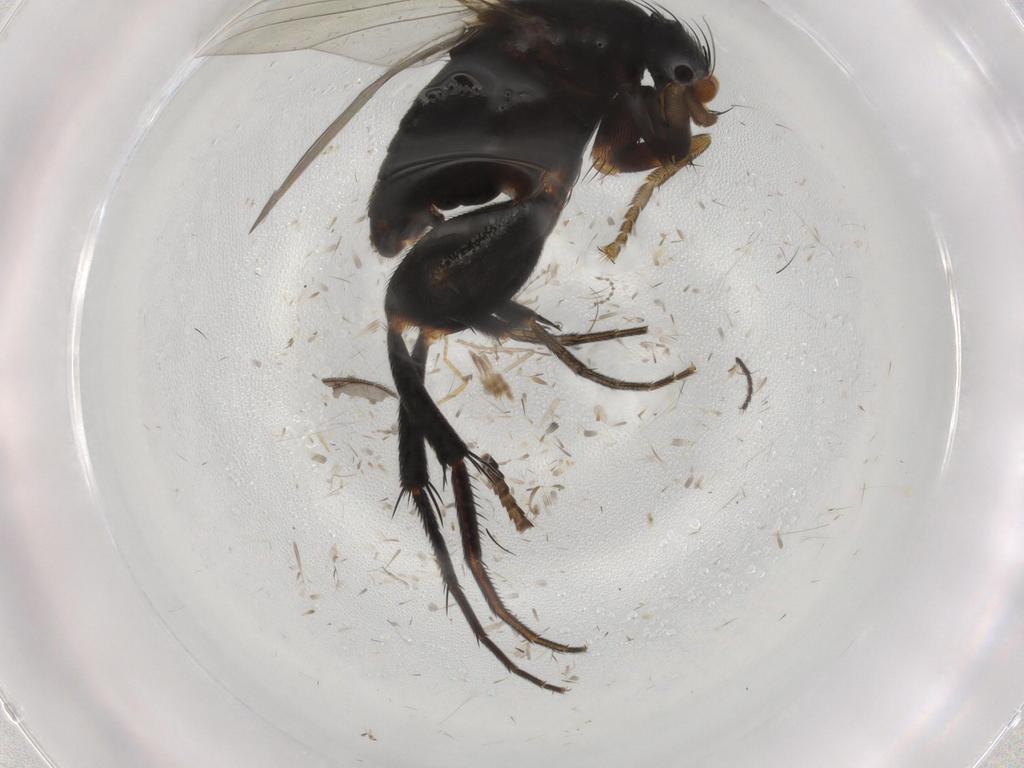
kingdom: Animalia
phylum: Arthropoda
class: Insecta
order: Diptera
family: Phoridae
